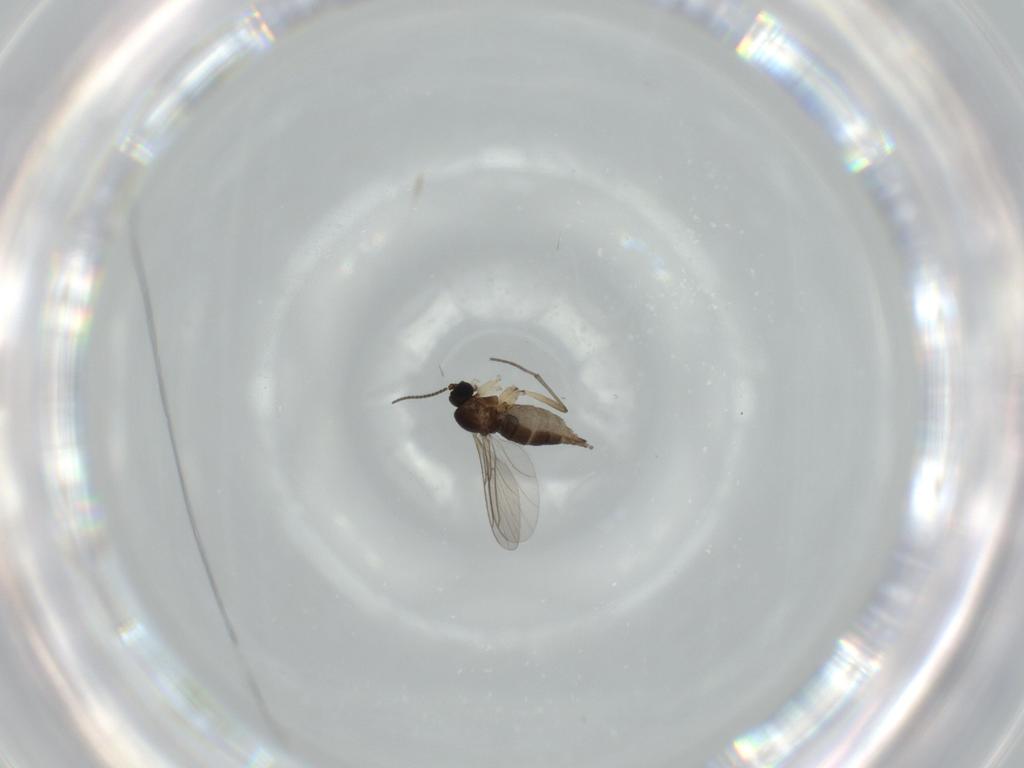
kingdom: Animalia
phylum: Arthropoda
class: Insecta
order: Diptera
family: Sciaridae
